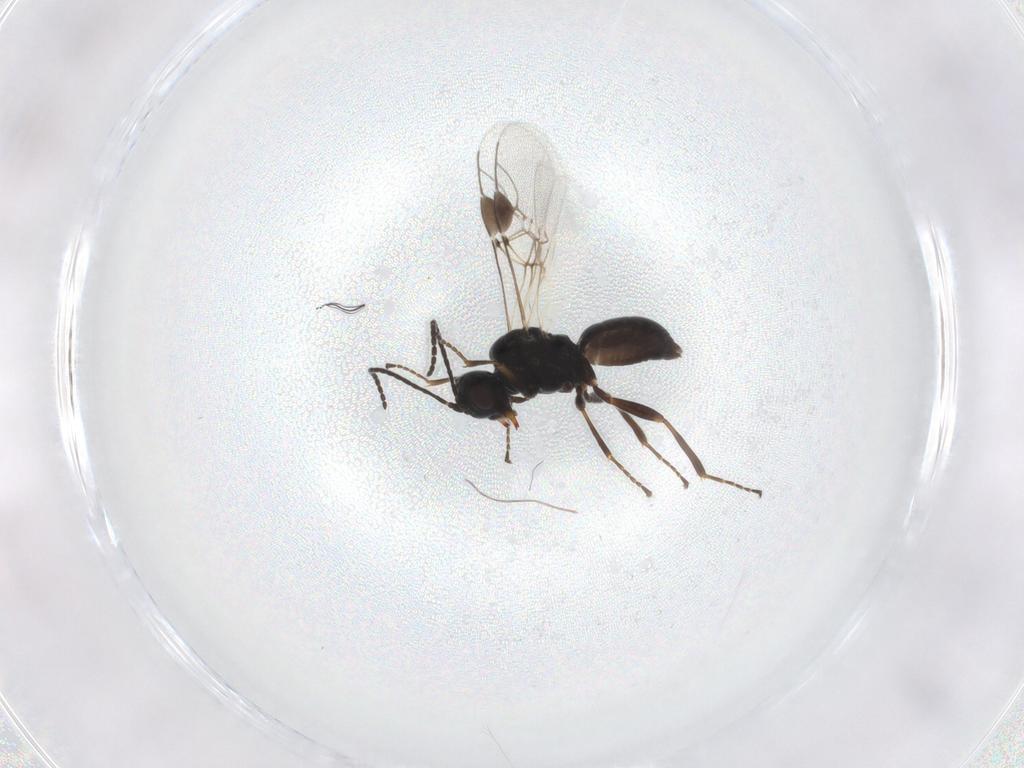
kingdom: Animalia
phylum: Arthropoda
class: Insecta
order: Hymenoptera
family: Braconidae
